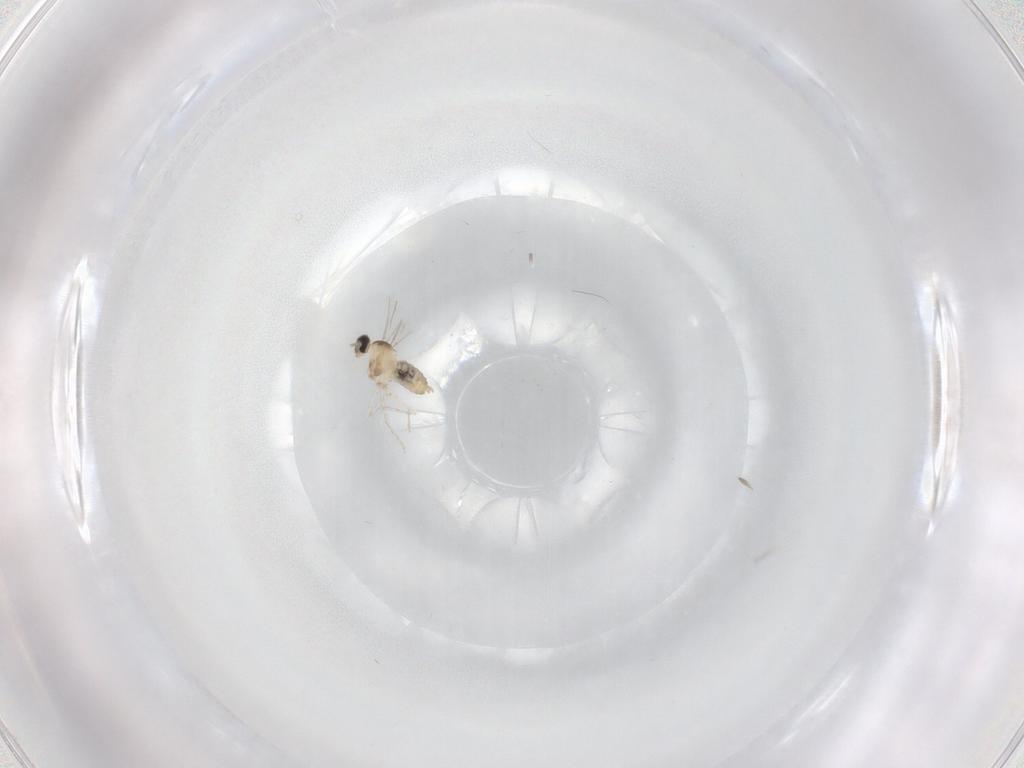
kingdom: Animalia
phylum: Arthropoda
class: Insecta
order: Diptera
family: Cecidomyiidae
